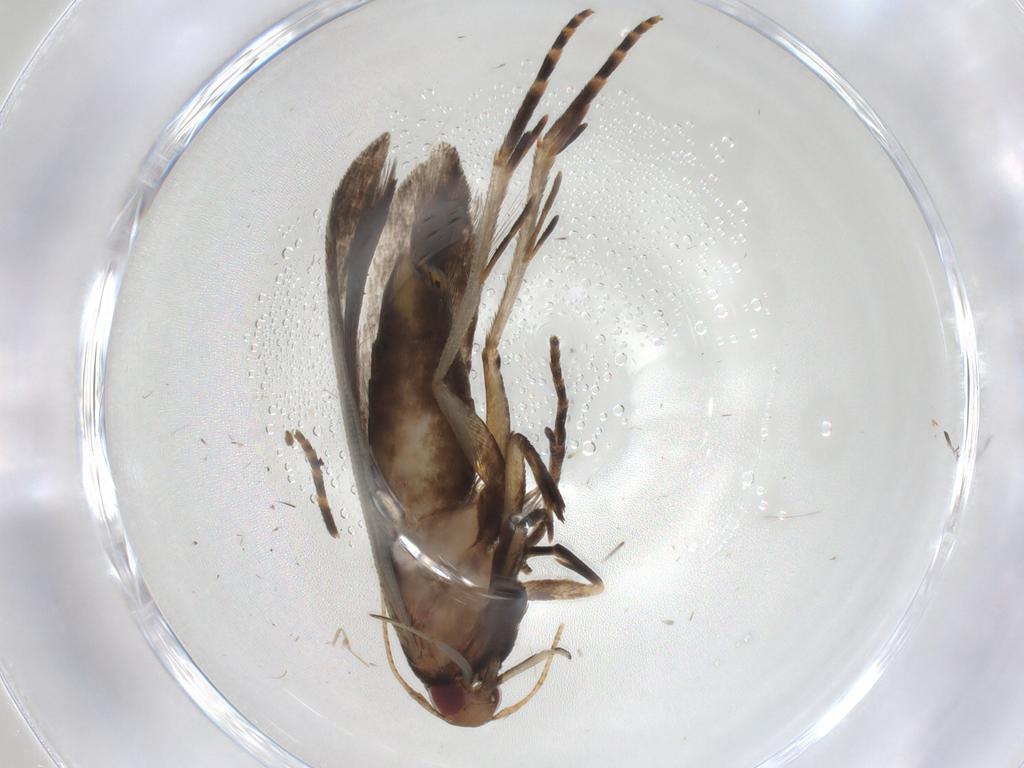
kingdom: Animalia
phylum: Arthropoda
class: Insecta
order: Lepidoptera
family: Gelechiidae
